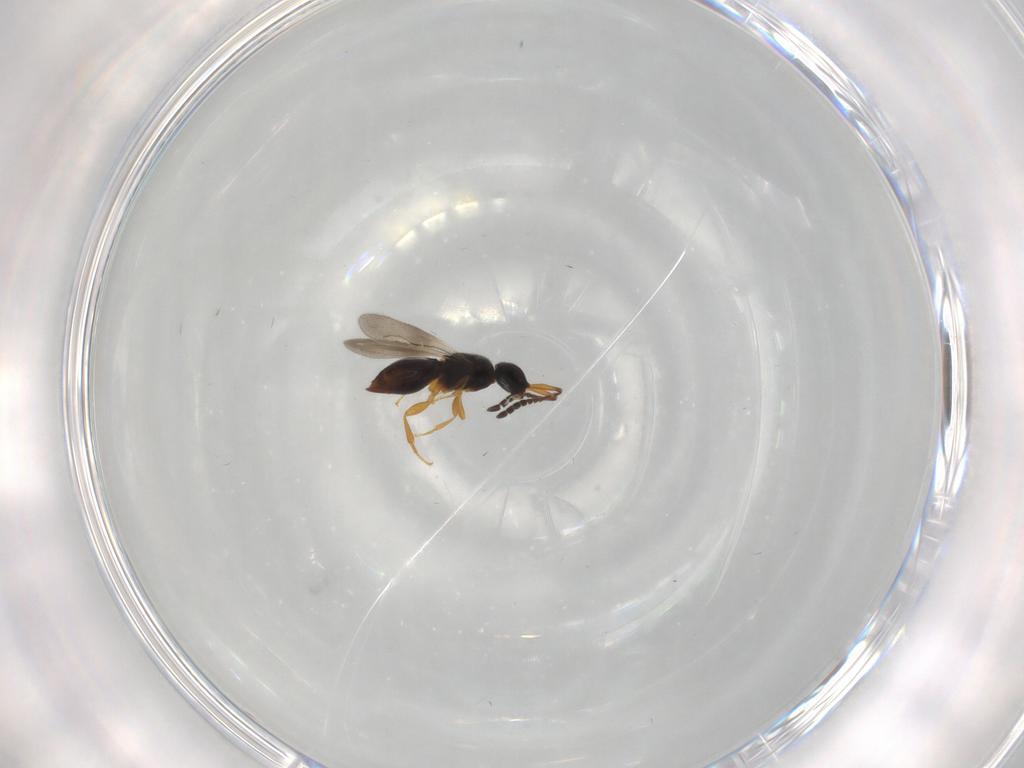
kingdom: Animalia
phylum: Arthropoda
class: Insecta
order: Hymenoptera
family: Ceraphronidae
